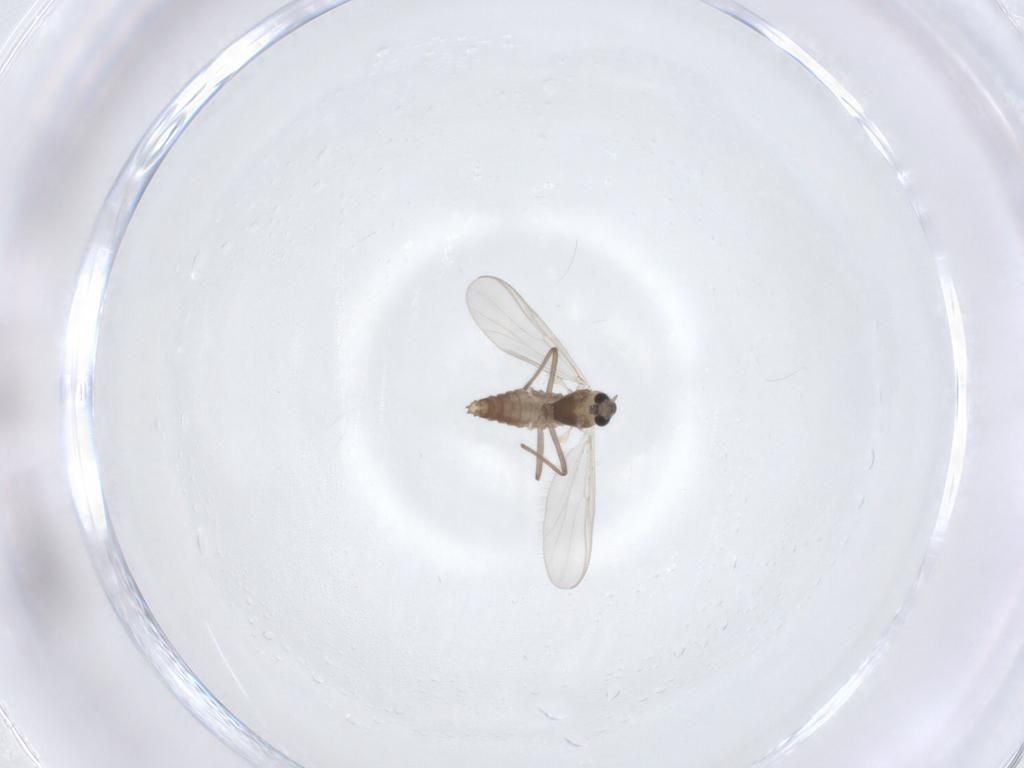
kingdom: Animalia
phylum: Arthropoda
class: Insecta
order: Diptera
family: Chironomidae
